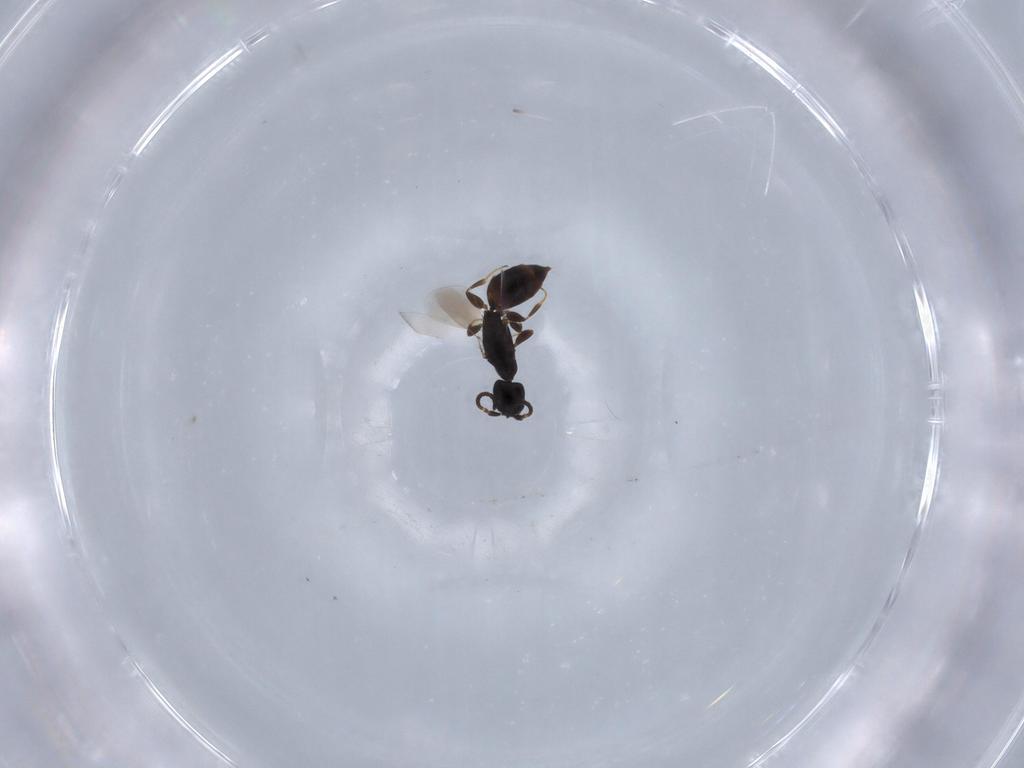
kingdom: Animalia
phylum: Arthropoda
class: Insecta
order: Hymenoptera
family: Bethylidae
